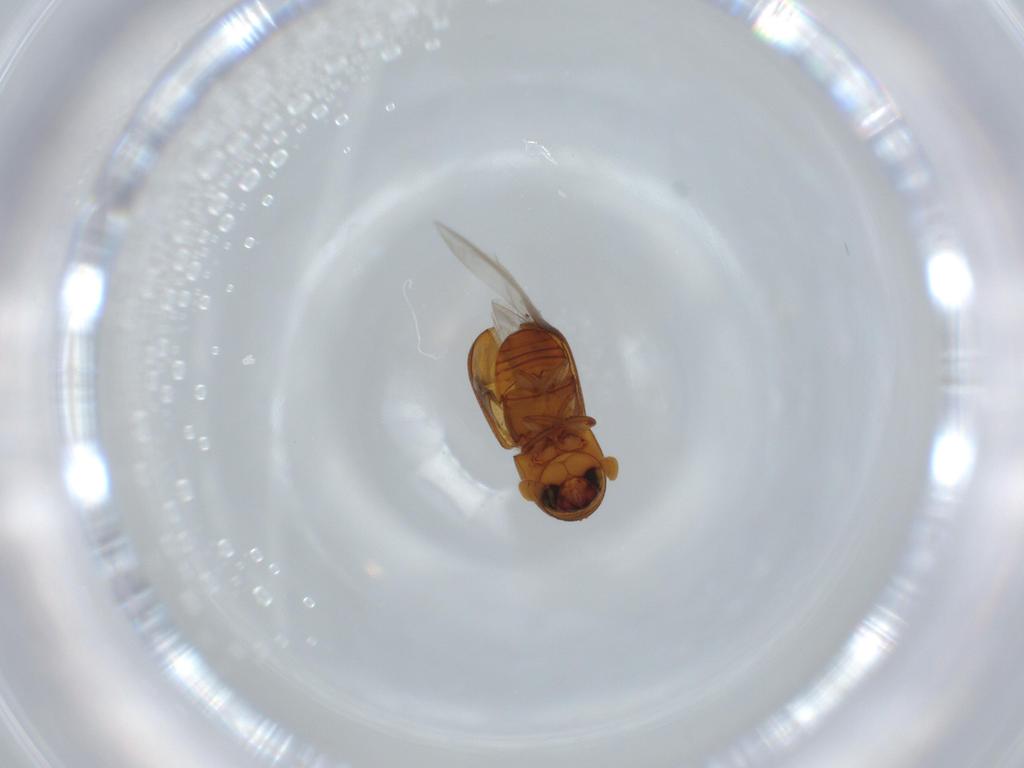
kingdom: Animalia
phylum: Arthropoda
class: Insecta
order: Coleoptera
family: Curculionidae
